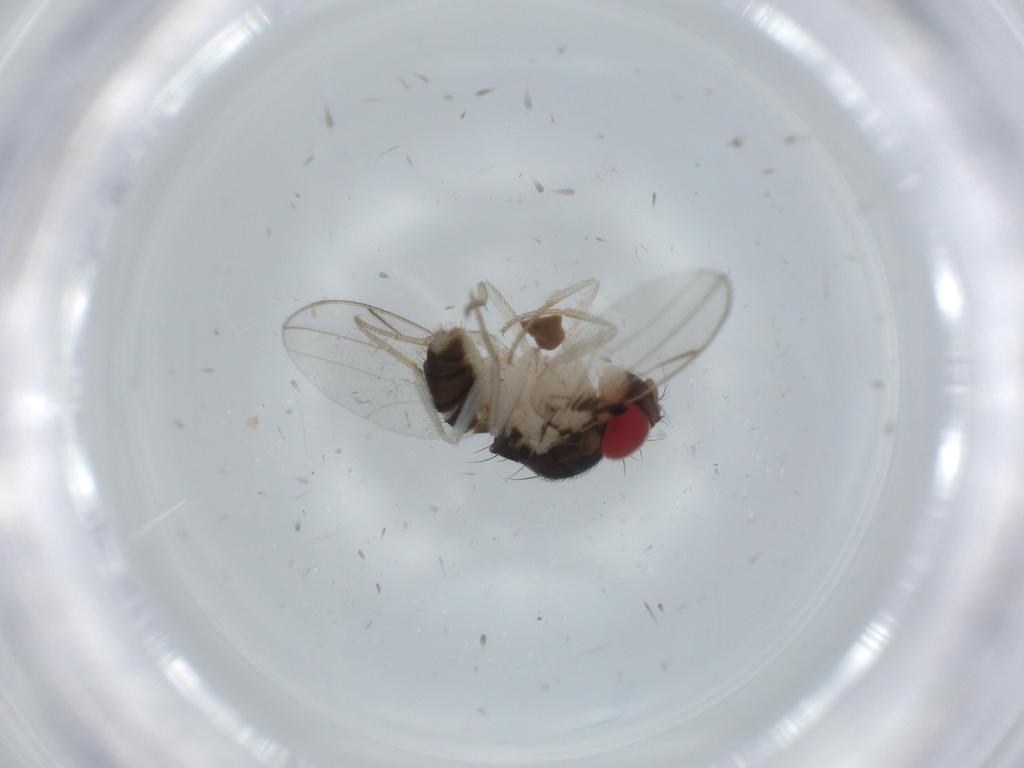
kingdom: Animalia
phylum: Arthropoda
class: Insecta
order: Diptera
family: Drosophilidae
